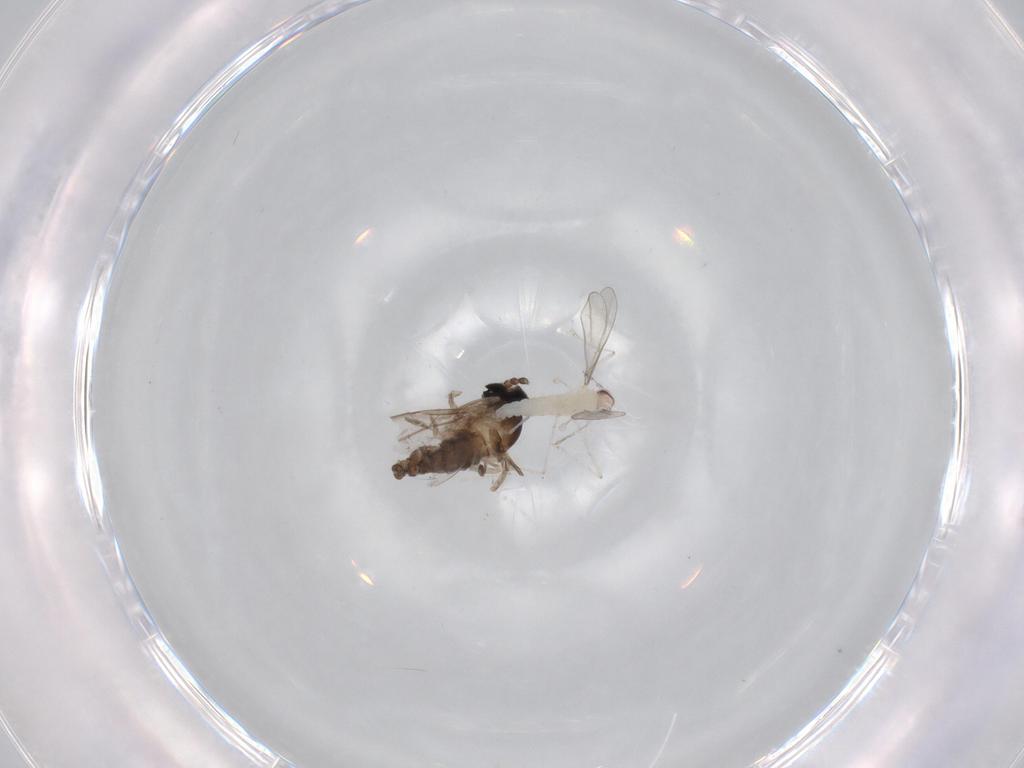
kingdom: Animalia
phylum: Arthropoda
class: Insecta
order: Diptera
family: Cecidomyiidae
